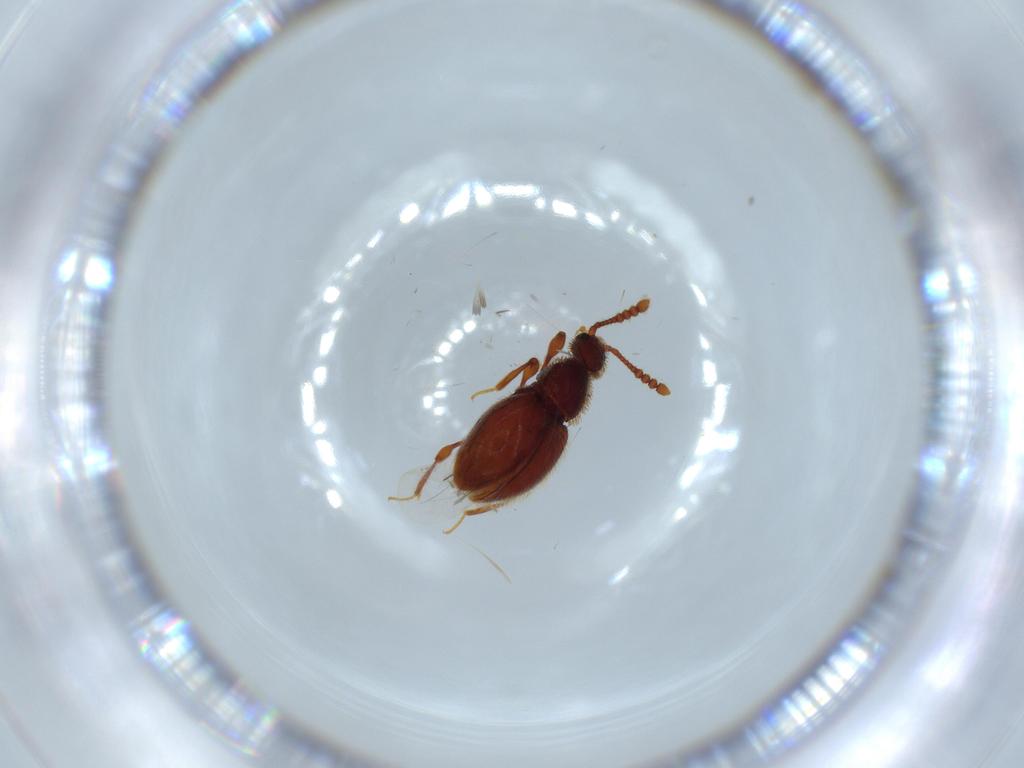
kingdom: Animalia
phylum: Arthropoda
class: Insecta
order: Coleoptera
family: Staphylinidae
